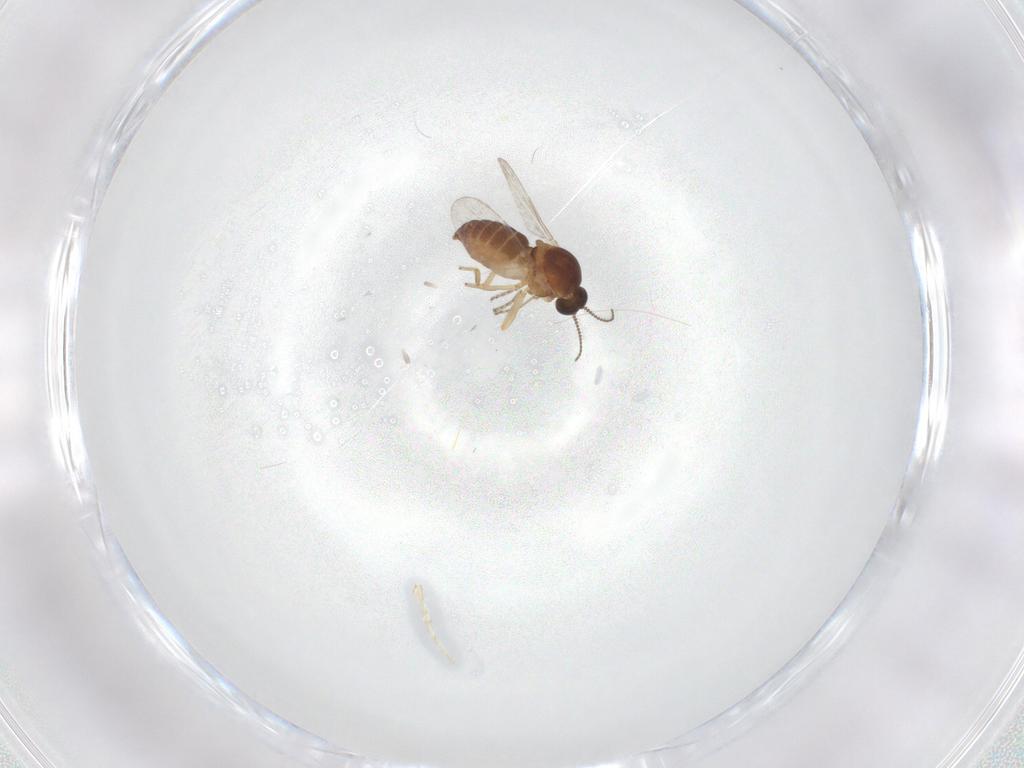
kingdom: Animalia
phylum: Arthropoda
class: Insecta
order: Diptera
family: Ceratopogonidae
